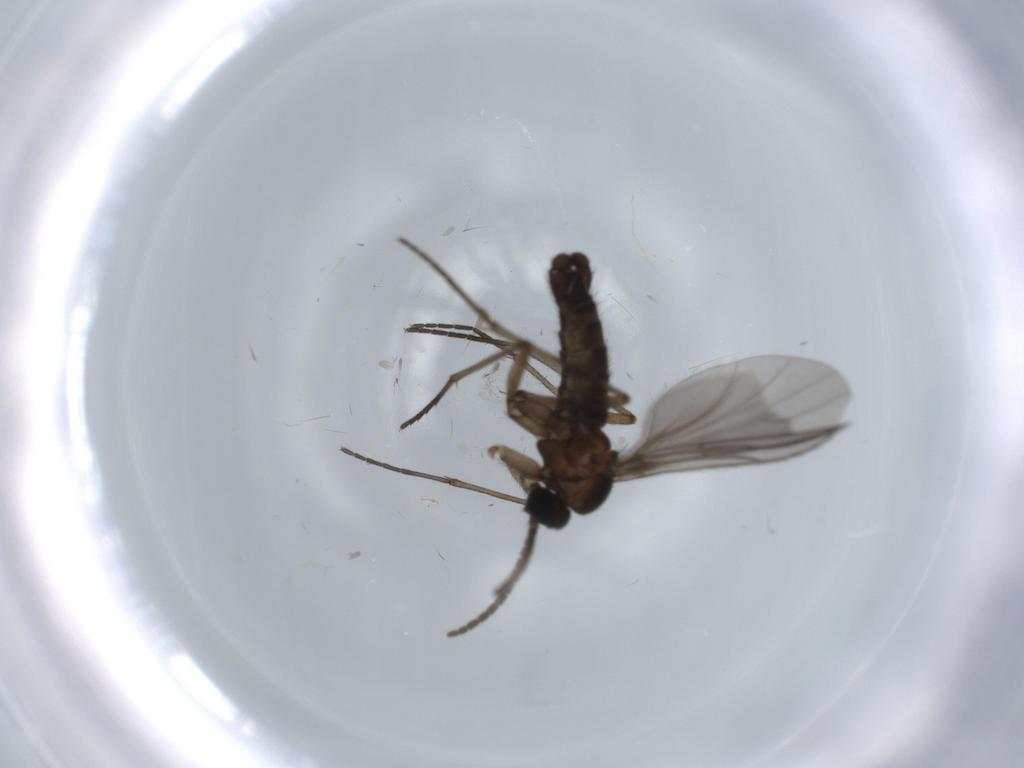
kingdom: Animalia
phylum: Arthropoda
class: Insecta
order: Diptera
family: Sciaridae
